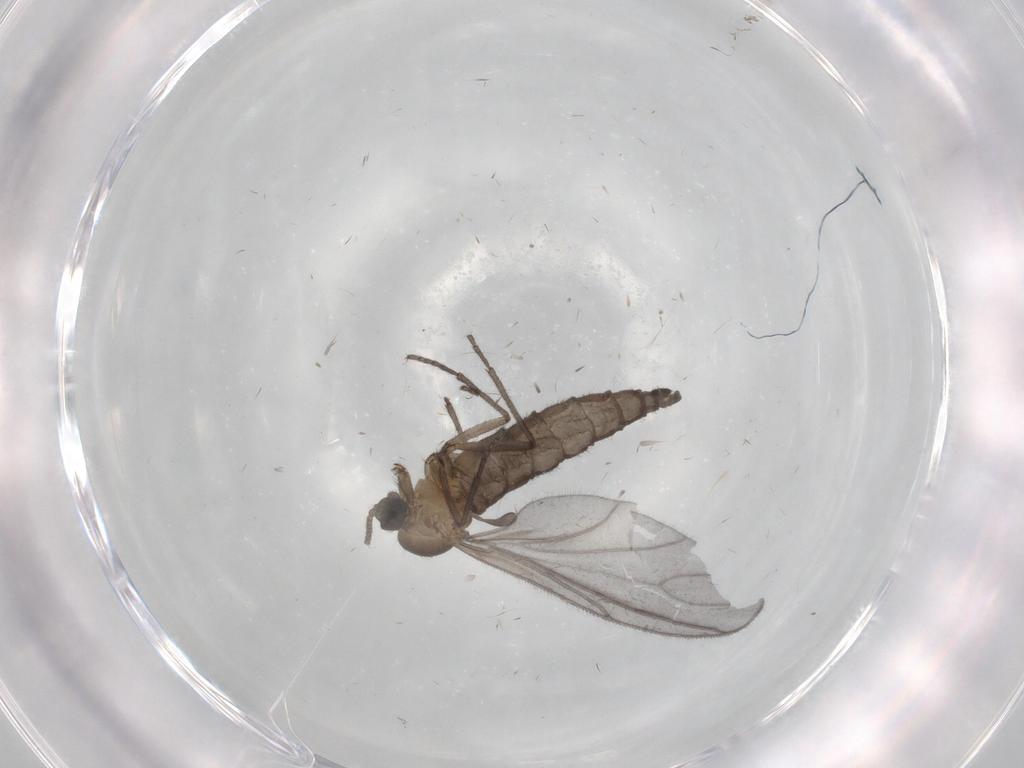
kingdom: Animalia
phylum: Arthropoda
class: Insecta
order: Diptera
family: Sciaridae
